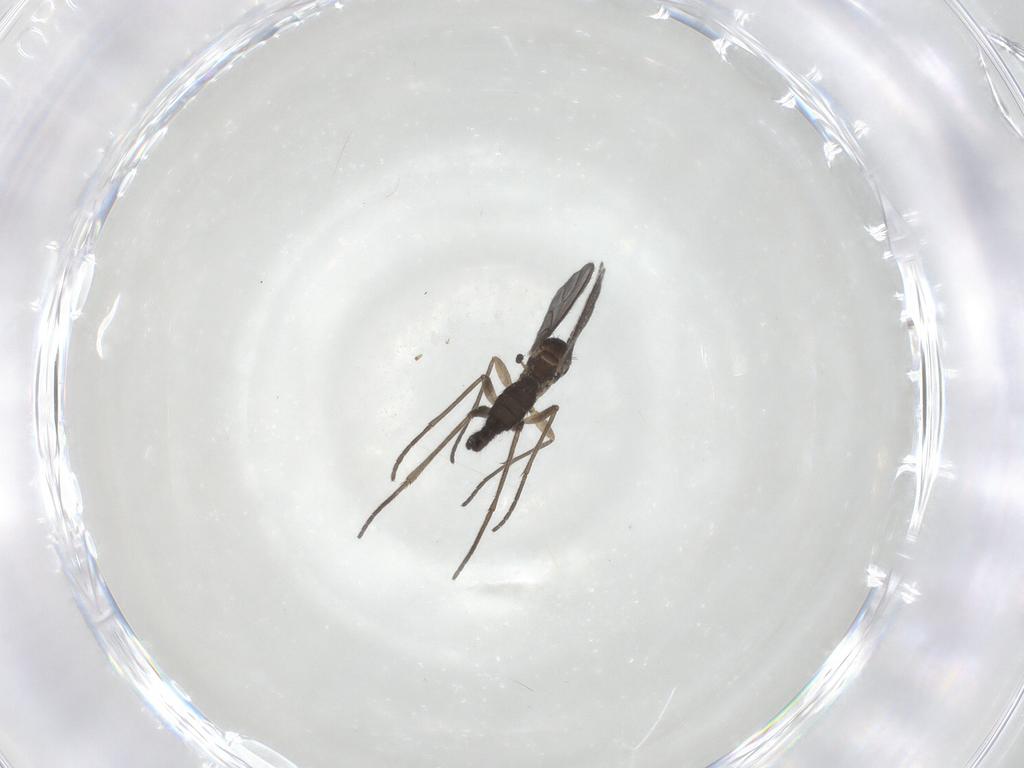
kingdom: Animalia
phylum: Arthropoda
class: Insecta
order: Diptera
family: Sciaridae
